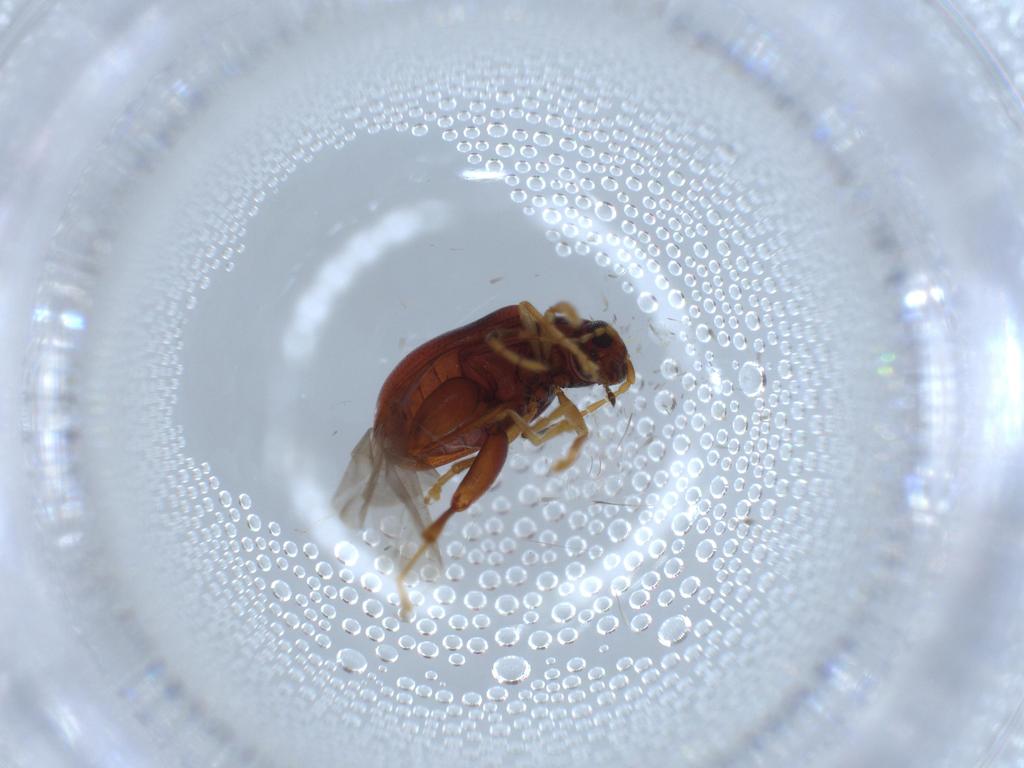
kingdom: Animalia
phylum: Arthropoda
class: Insecta
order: Coleoptera
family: Chrysomelidae
